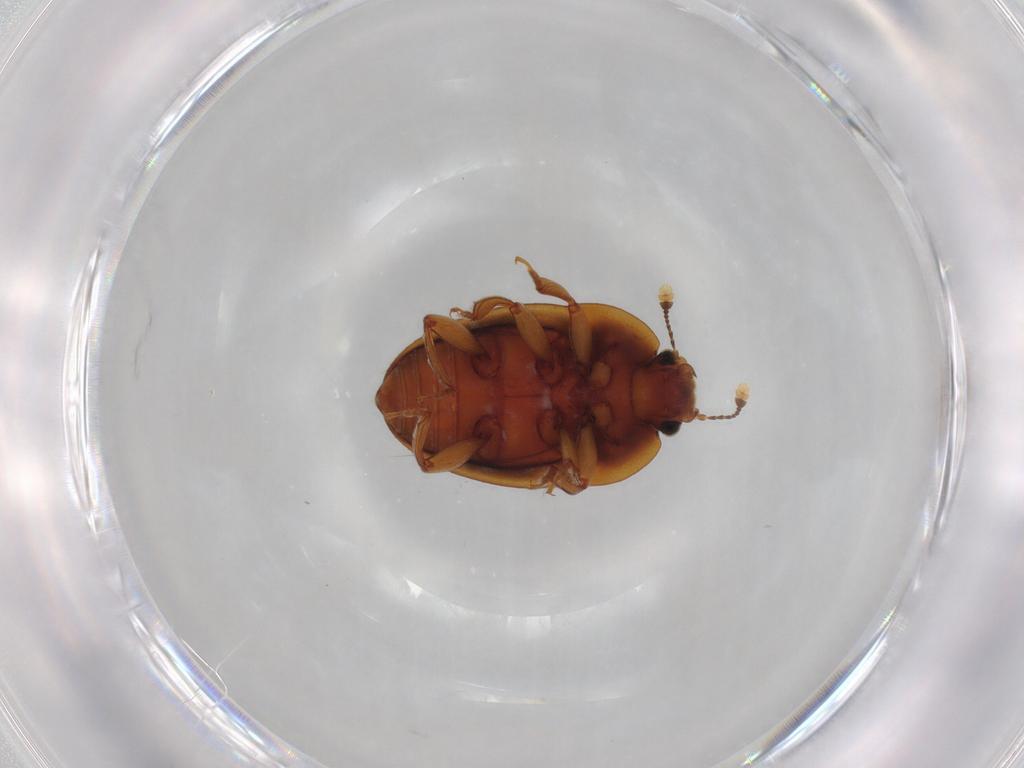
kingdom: Animalia
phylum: Arthropoda
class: Insecta
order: Coleoptera
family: Nitidulidae
